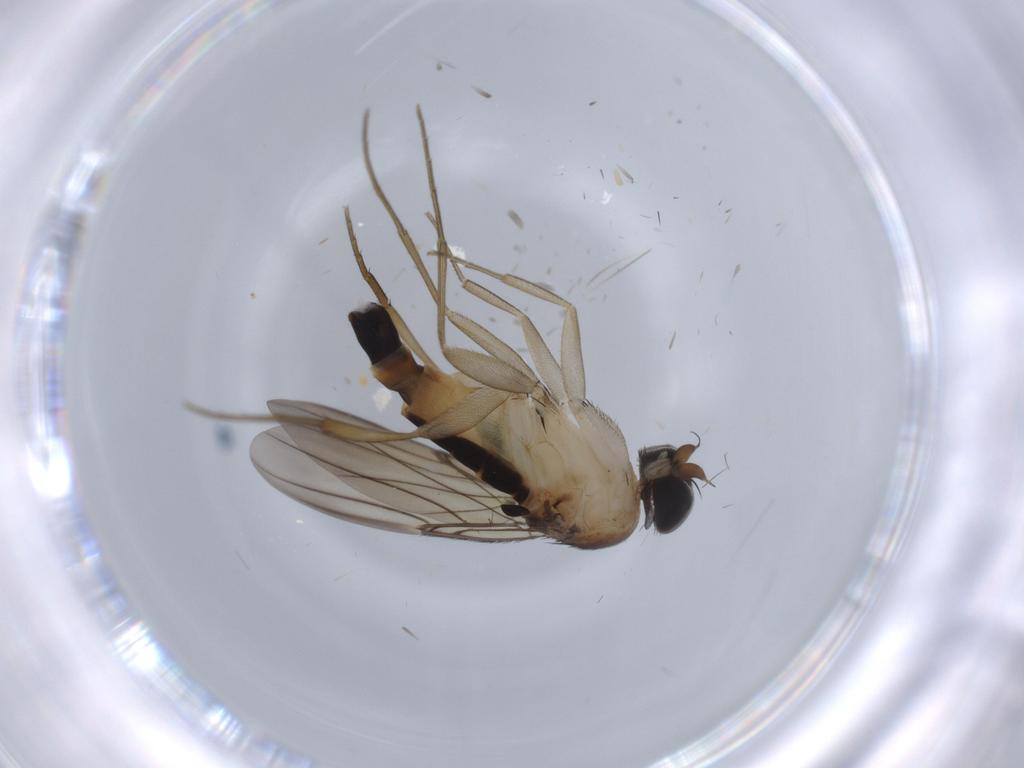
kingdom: Animalia
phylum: Arthropoda
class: Insecta
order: Diptera
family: Phoridae
